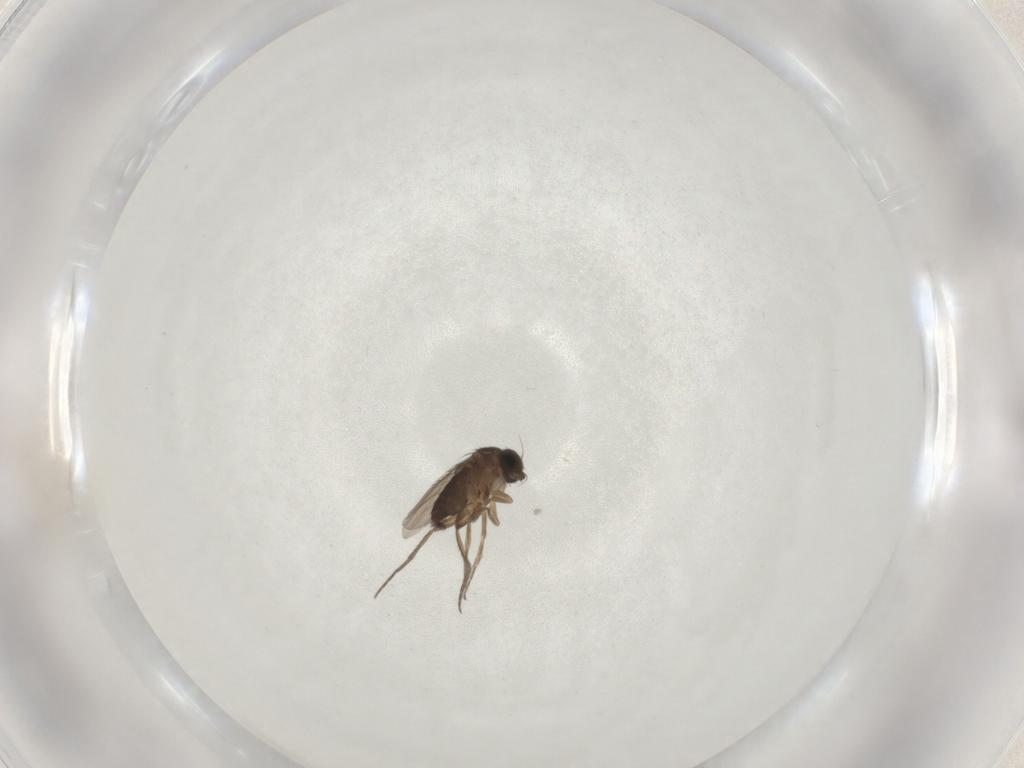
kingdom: Animalia
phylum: Arthropoda
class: Insecta
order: Diptera
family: Cecidomyiidae
